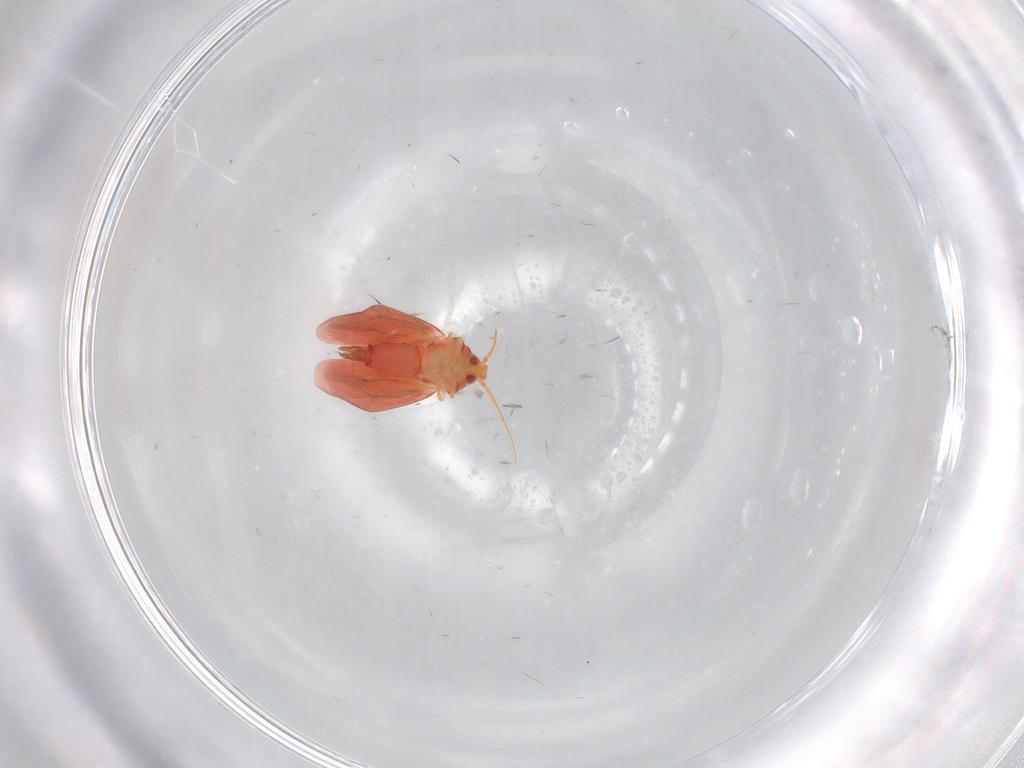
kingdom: Animalia
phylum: Arthropoda
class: Insecta
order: Hemiptera
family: Aleyrodidae
